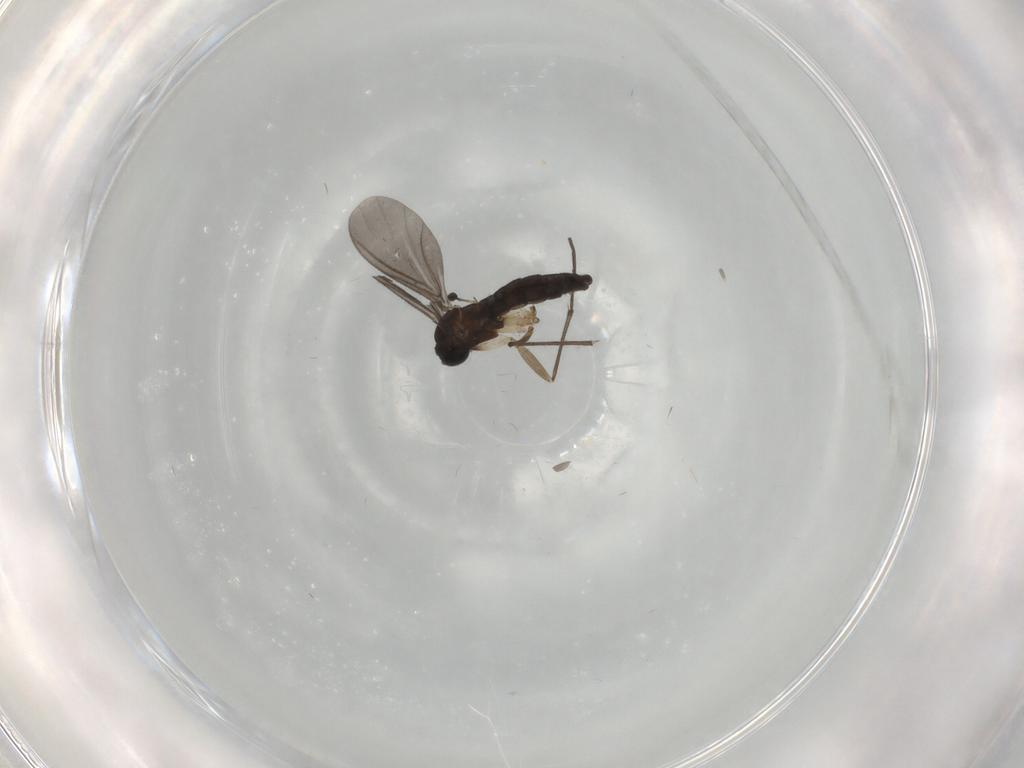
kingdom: Animalia
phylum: Arthropoda
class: Insecta
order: Diptera
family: Sciaridae
